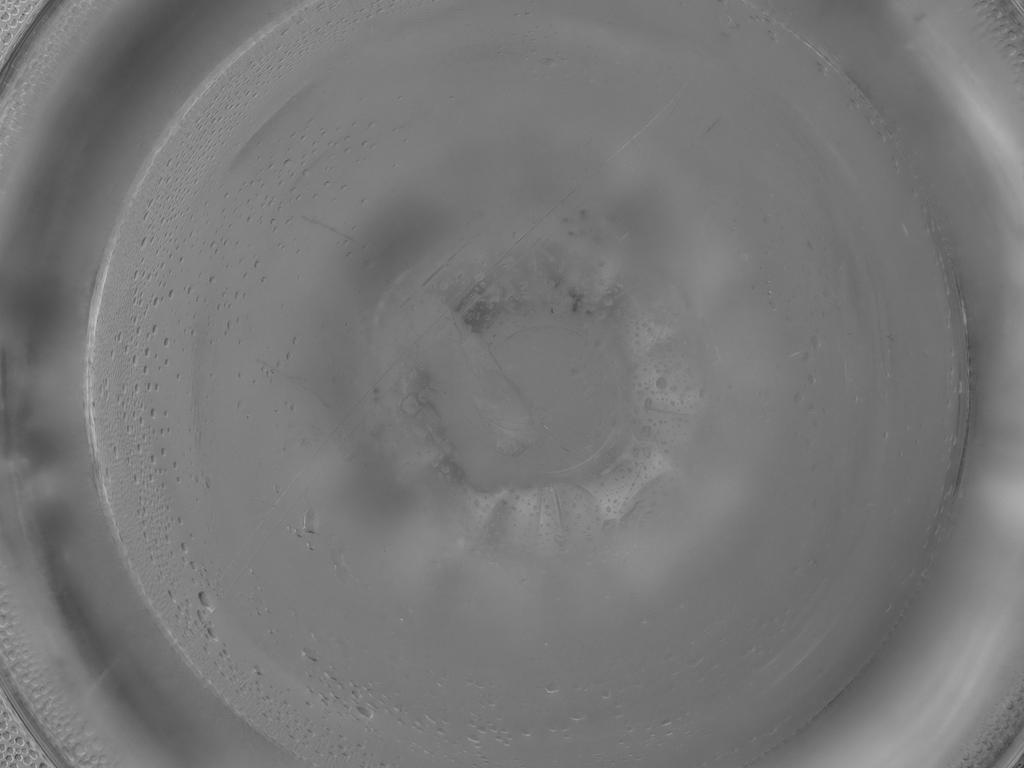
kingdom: Animalia
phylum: Arthropoda
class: Insecta
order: Diptera
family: Cecidomyiidae
